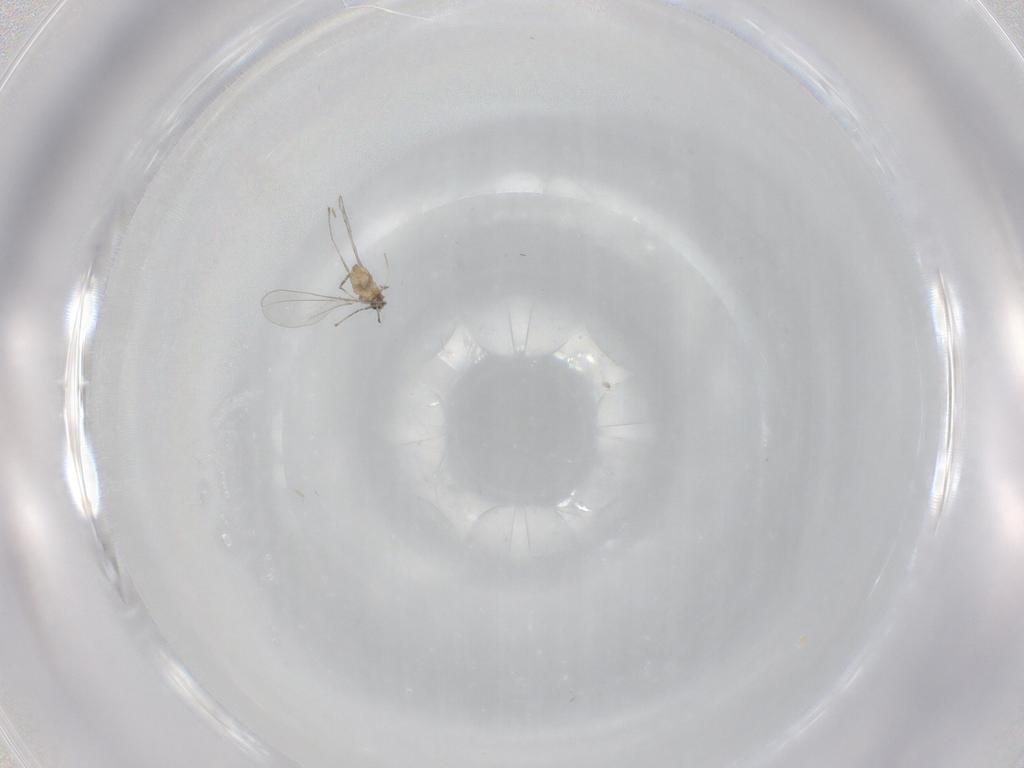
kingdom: Animalia
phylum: Arthropoda
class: Insecta
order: Diptera
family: Cecidomyiidae
